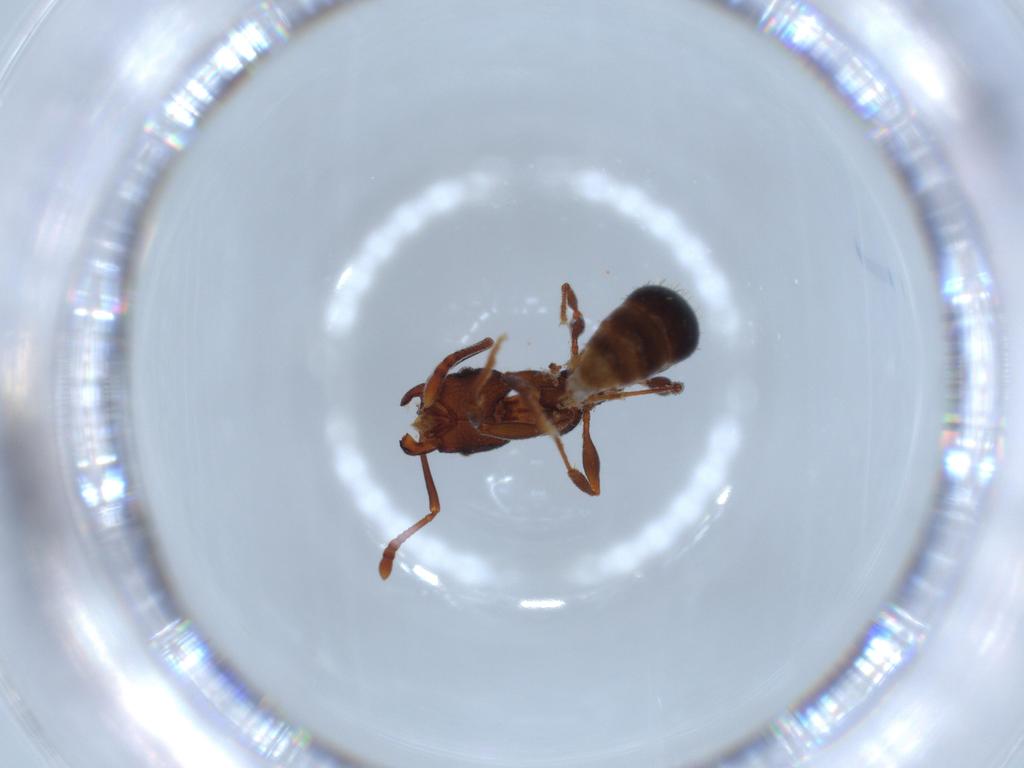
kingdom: Animalia
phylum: Arthropoda
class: Insecta
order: Hymenoptera
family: Formicidae
